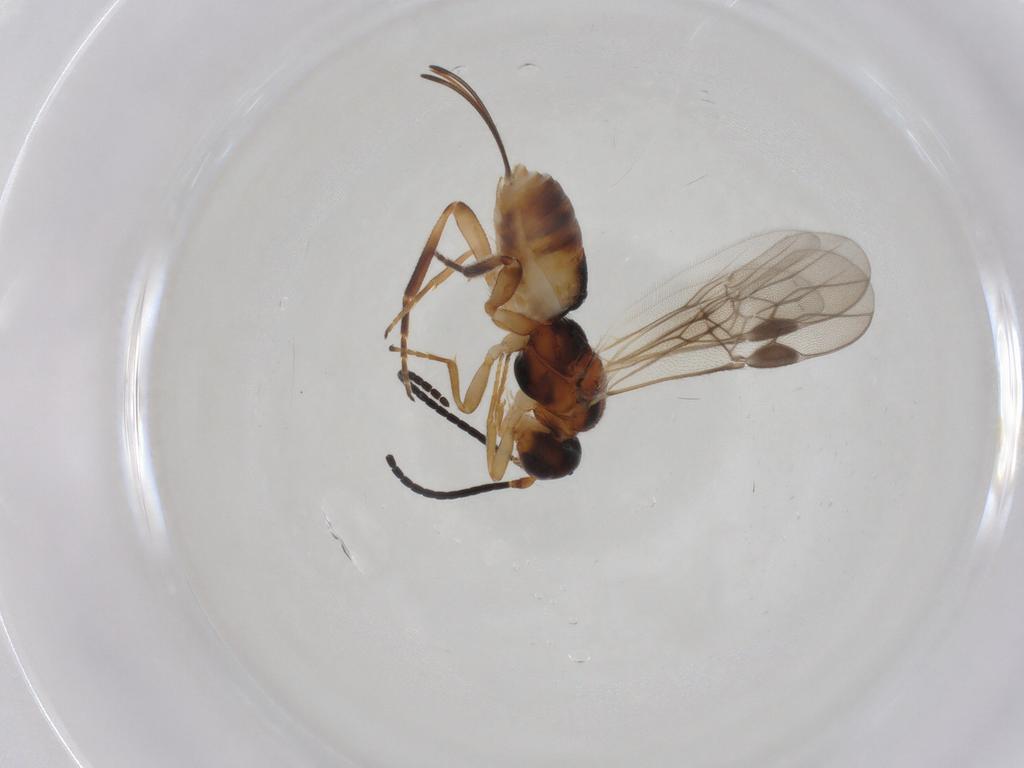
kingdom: Animalia
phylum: Arthropoda
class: Insecta
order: Hymenoptera
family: Braconidae
